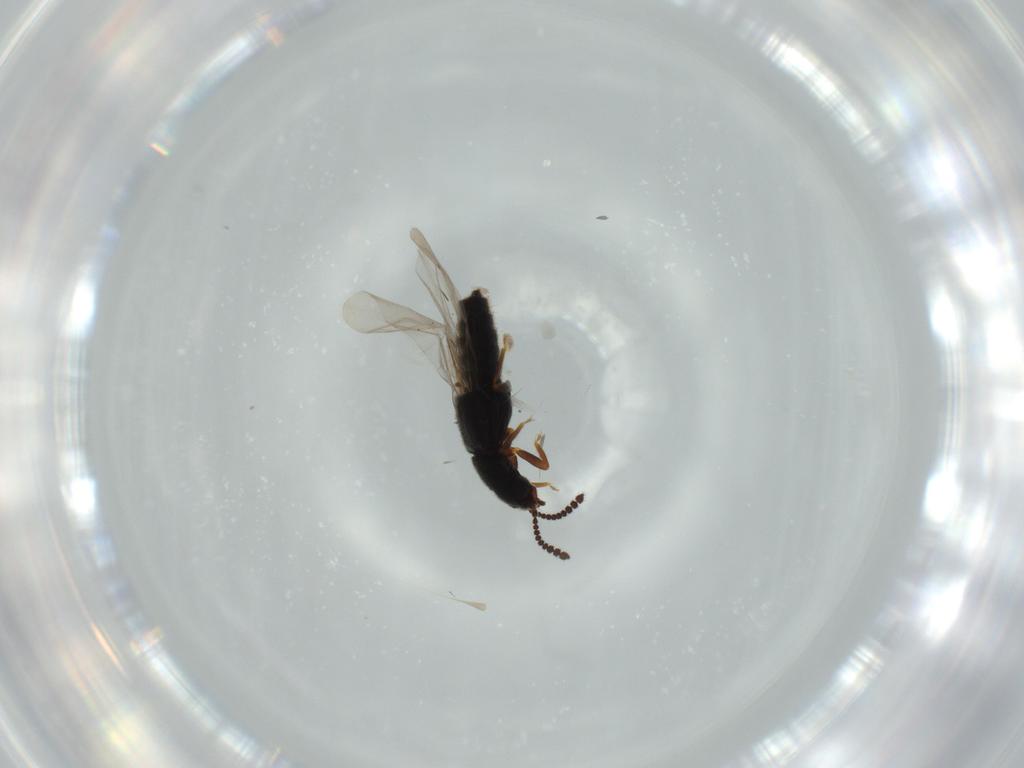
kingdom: Animalia
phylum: Arthropoda
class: Insecta
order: Coleoptera
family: Staphylinidae
